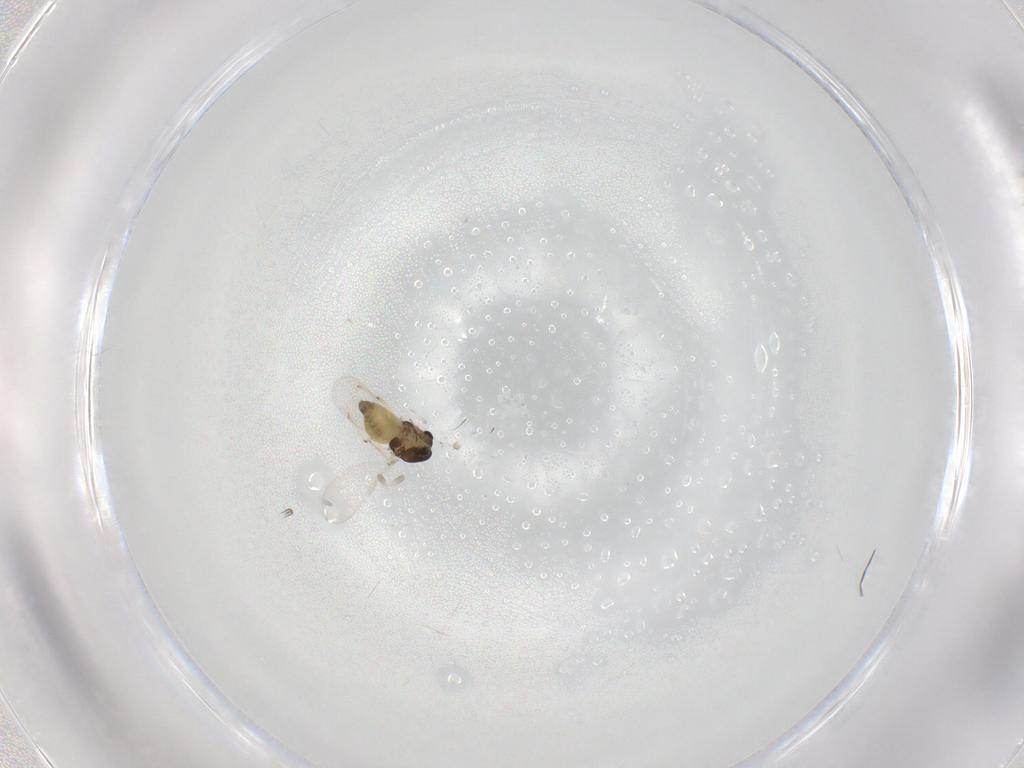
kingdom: Animalia
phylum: Arthropoda
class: Insecta
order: Diptera
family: Chironomidae
